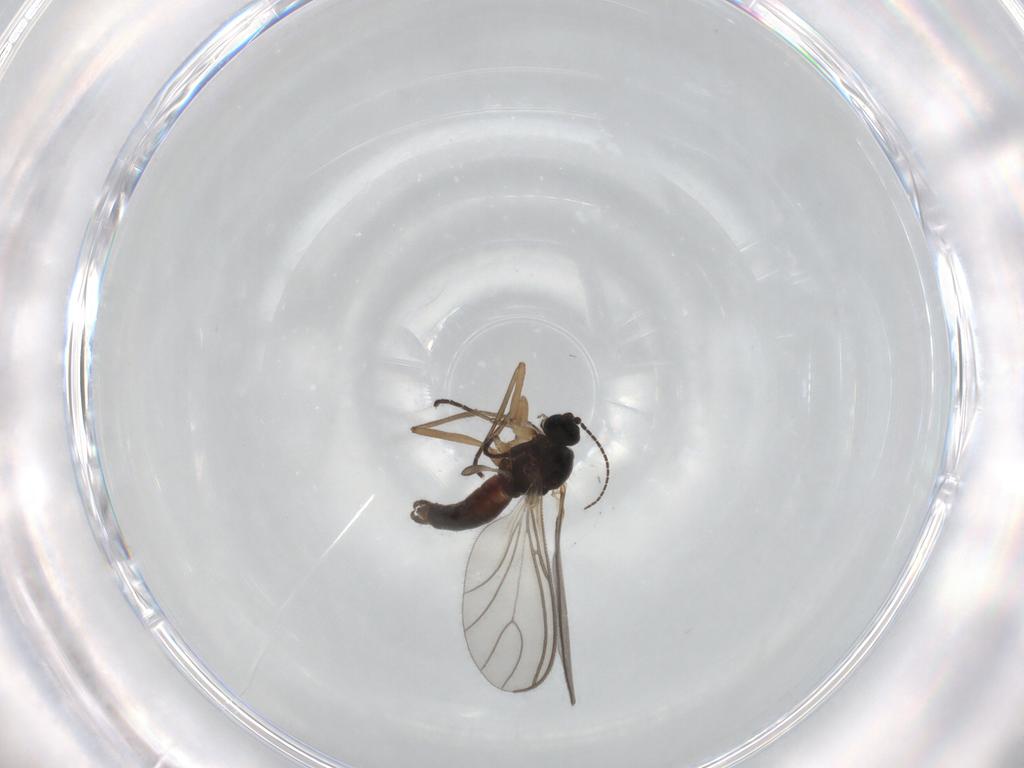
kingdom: Animalia
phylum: Arthropoda
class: Insecta
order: Diptera
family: Sciaridae
